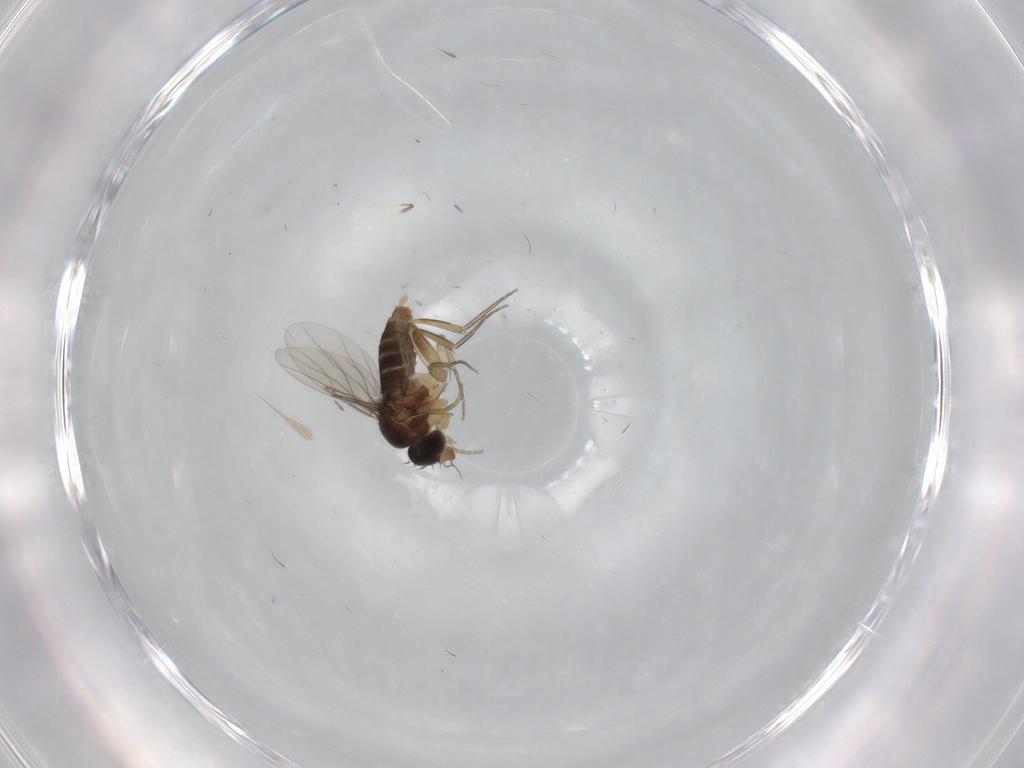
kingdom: Animalia
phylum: Arthropoda
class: Insecta
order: Diptera
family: Phoridae
